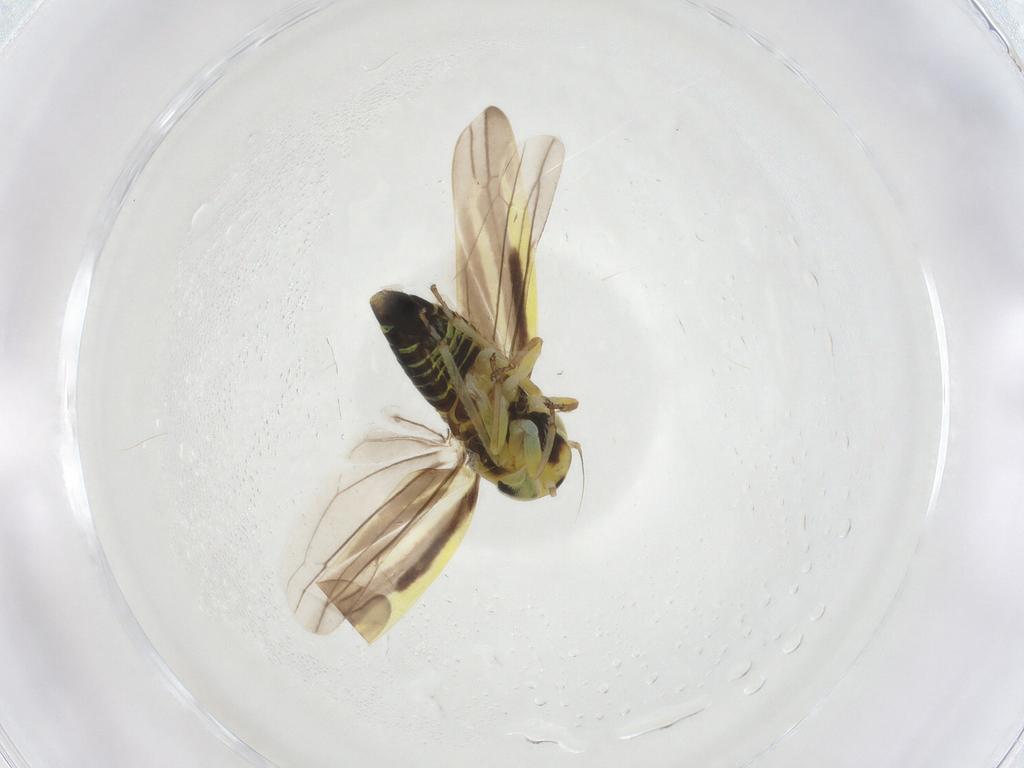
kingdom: Animalia
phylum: Arthropoda
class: Insecta
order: Hemiptera
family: Cicadellidae
